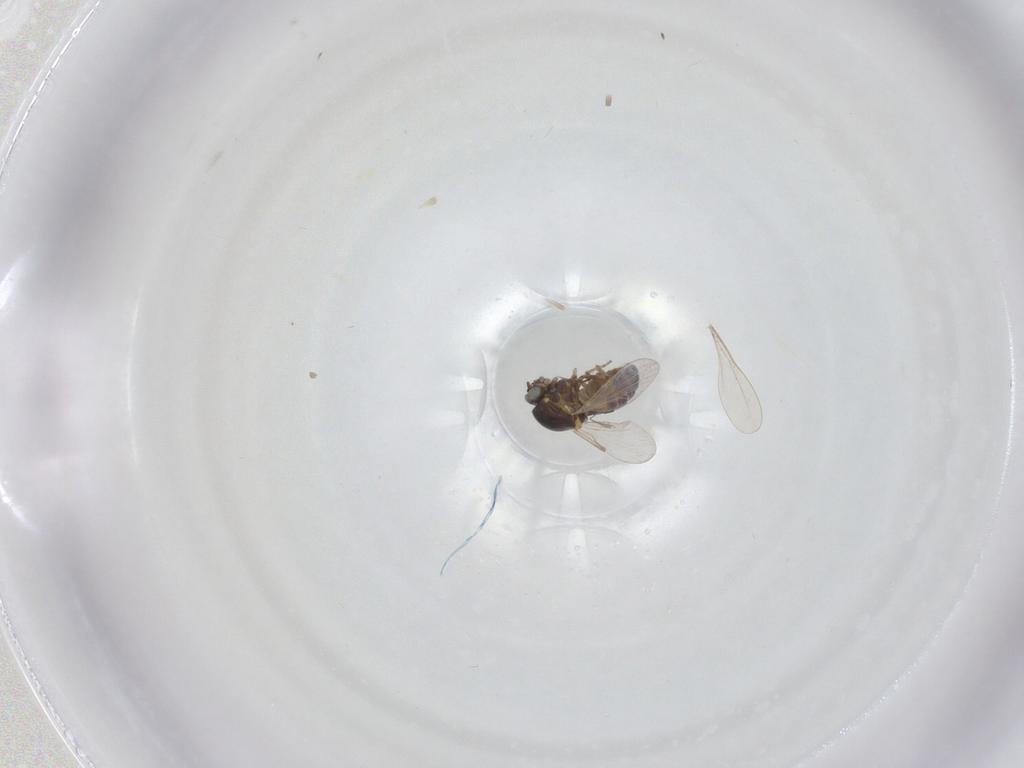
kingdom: Animalia
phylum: Arthropoda
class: Insecta
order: Diptera
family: Ceratopogonidae
